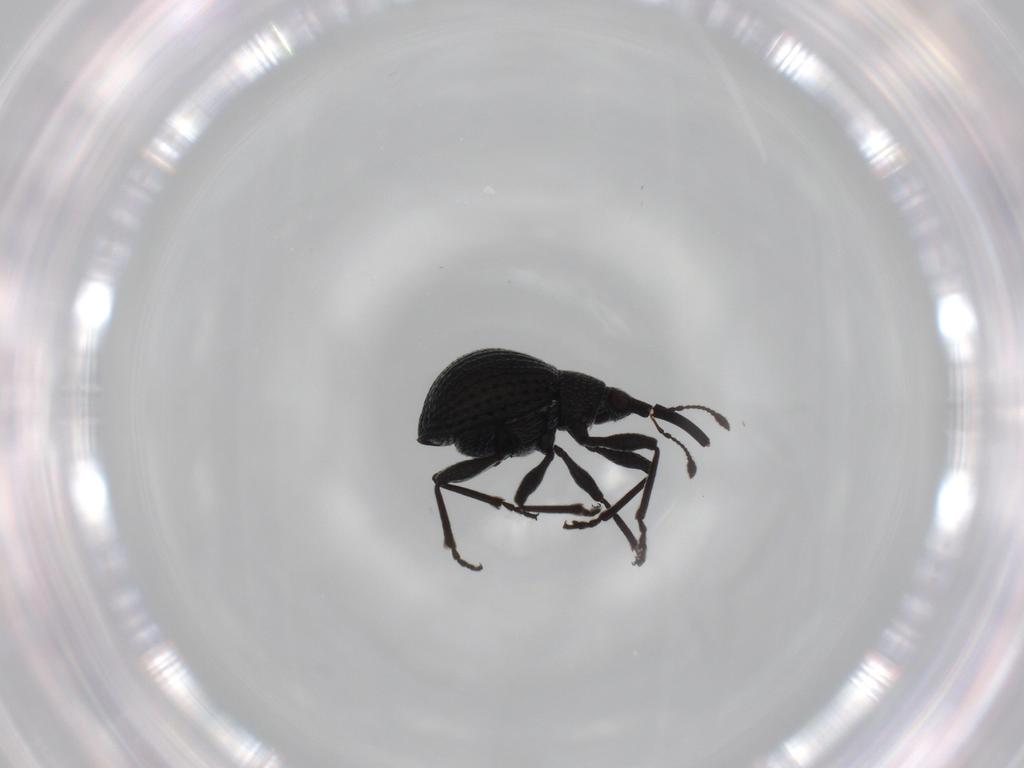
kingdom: Animalia
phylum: Arthropoda
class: Insecta
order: Coleoptera
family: Brentidae
